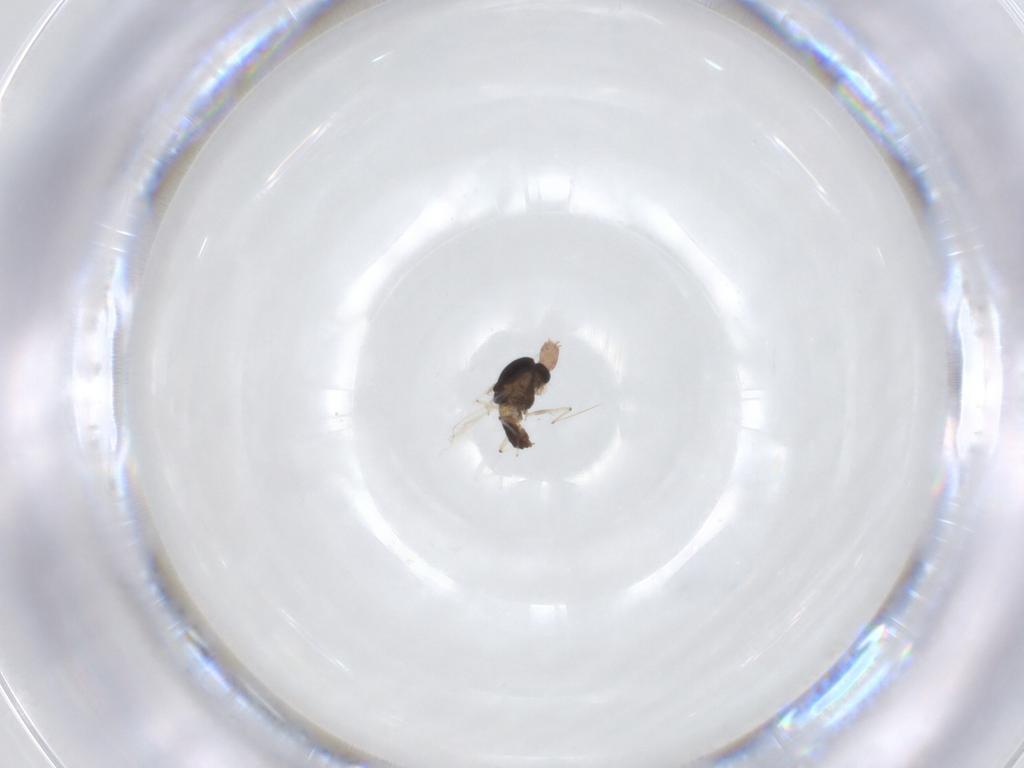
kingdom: Animalia
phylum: Arthropoda
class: Insecta
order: Diptera
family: Chironomidae
